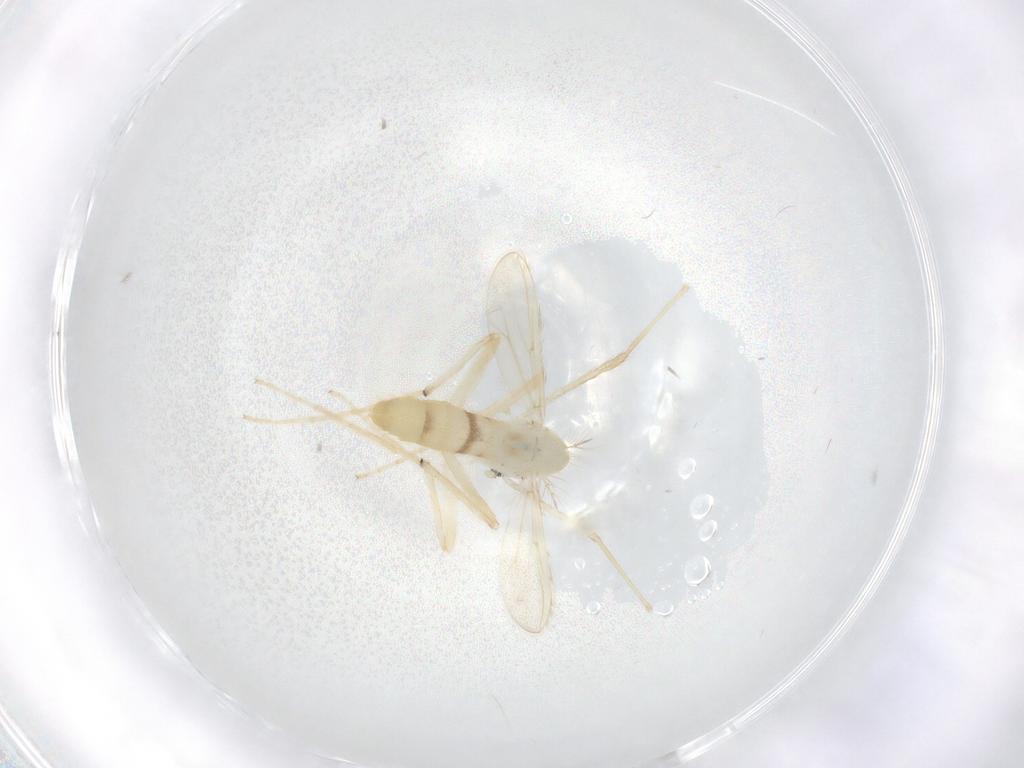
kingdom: Animalia
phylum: Arthropoda
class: Insecta
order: Diptera
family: Chironomidae
